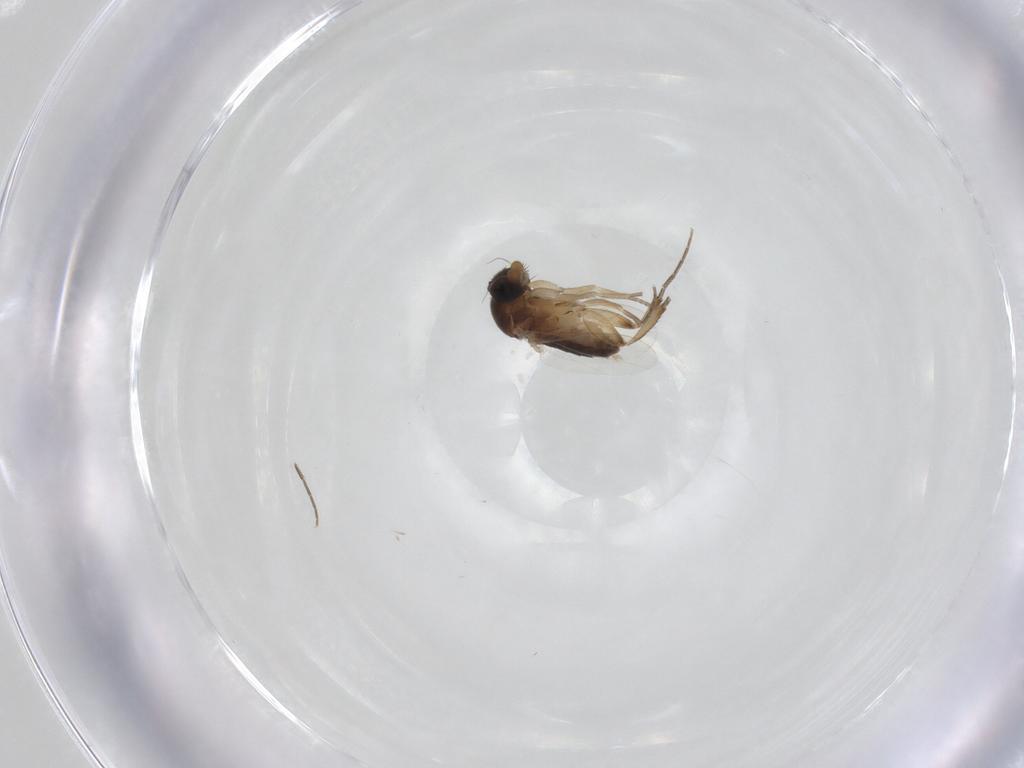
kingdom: Animalia
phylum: Arthropoda
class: Insecta
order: Diptera
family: Phoridae
